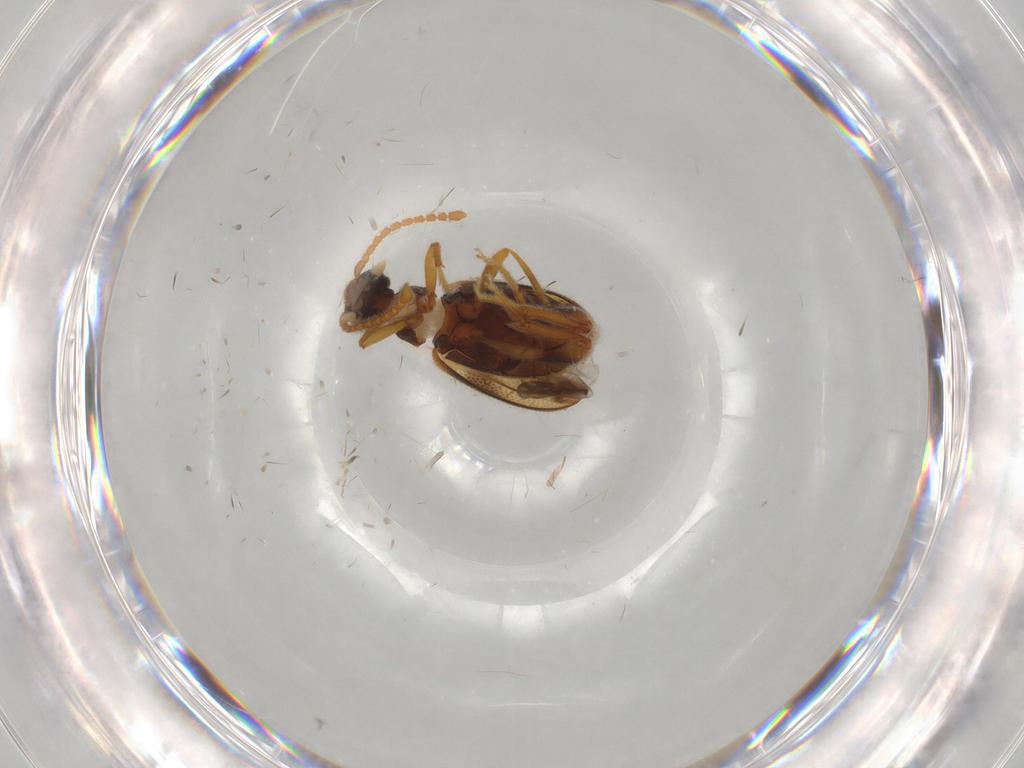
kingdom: Animalia
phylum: Arthropoda
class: Insecta
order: Coleoptera
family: Aderidae
